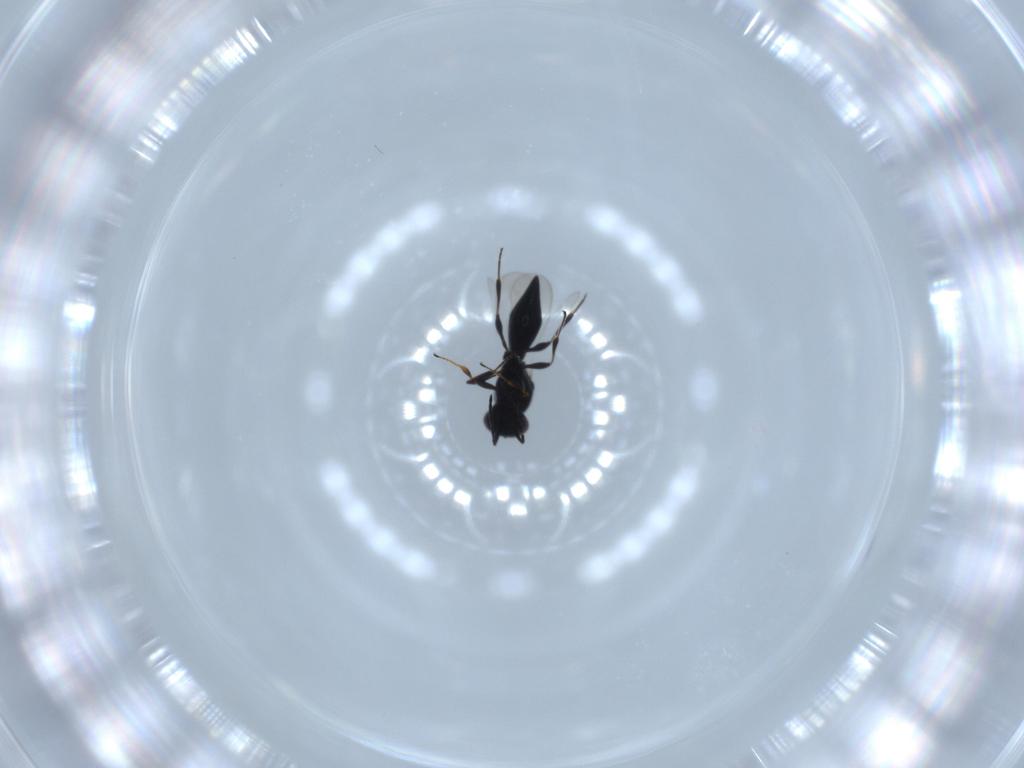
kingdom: Animalia
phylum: Arthropoda
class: Insecta
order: Diptera
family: Mythicomyiidae
